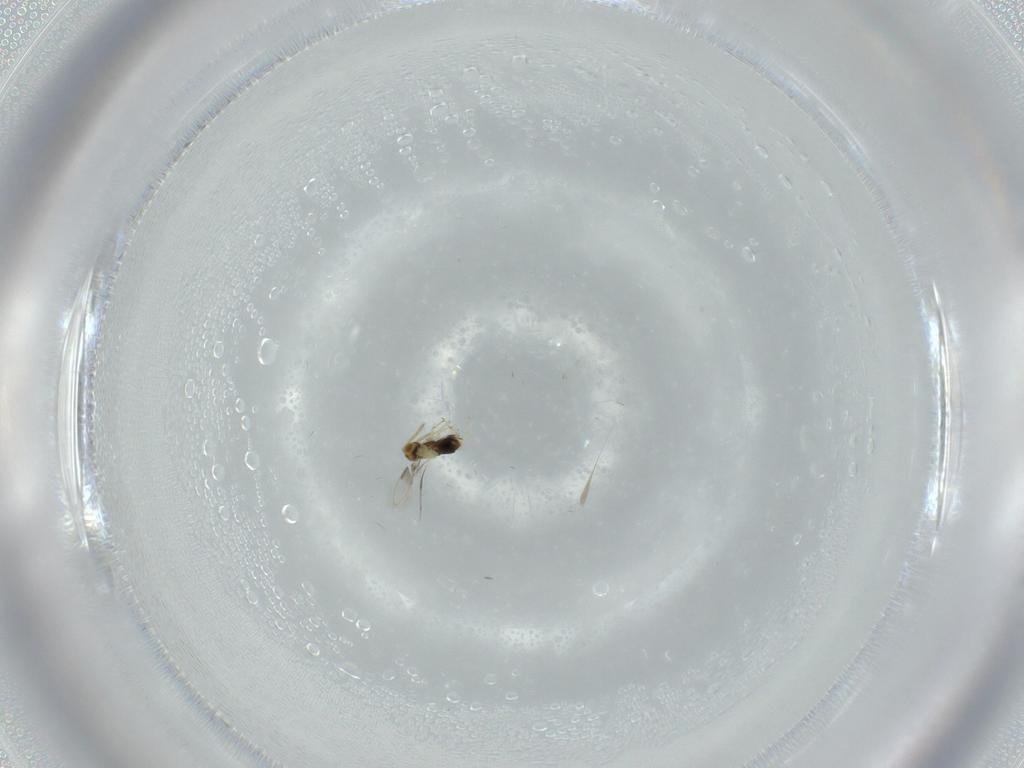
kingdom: Animalia
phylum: Arthropoda
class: Insecta
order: Hymenoptera
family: Aphelinidae
